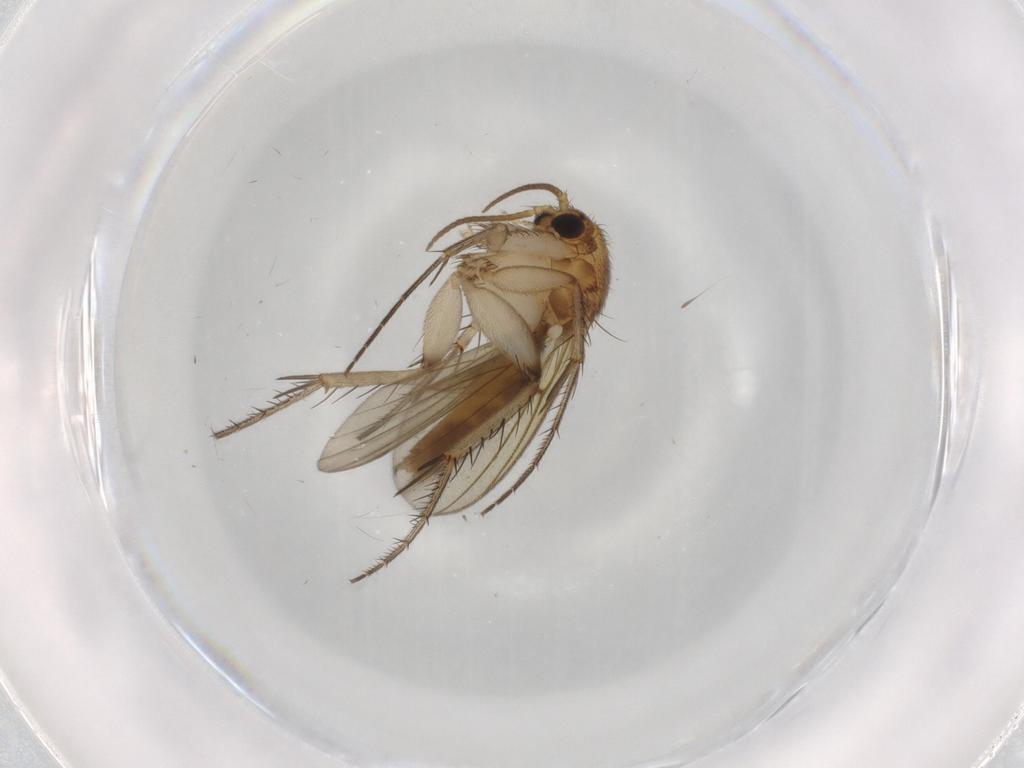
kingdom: Animalia
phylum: Arthropoda
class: Insecta
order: Diptera
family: Mycetophilidae
